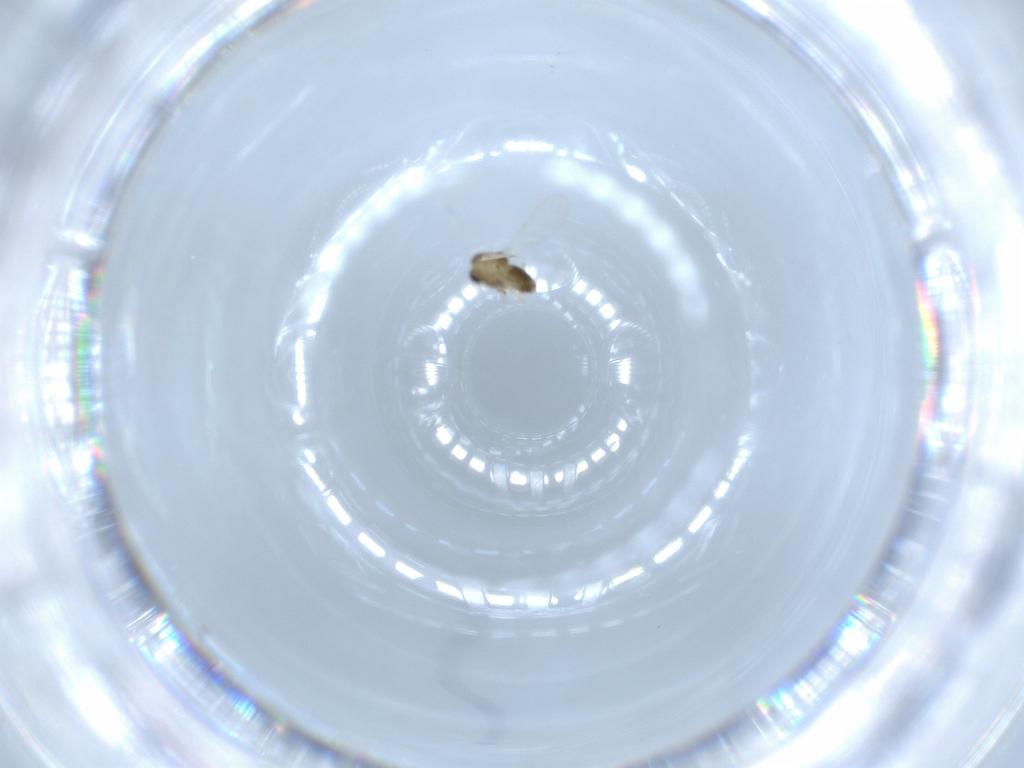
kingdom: Animalia
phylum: Arthropoda
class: Insecta
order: Diptera
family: Chironomidae
